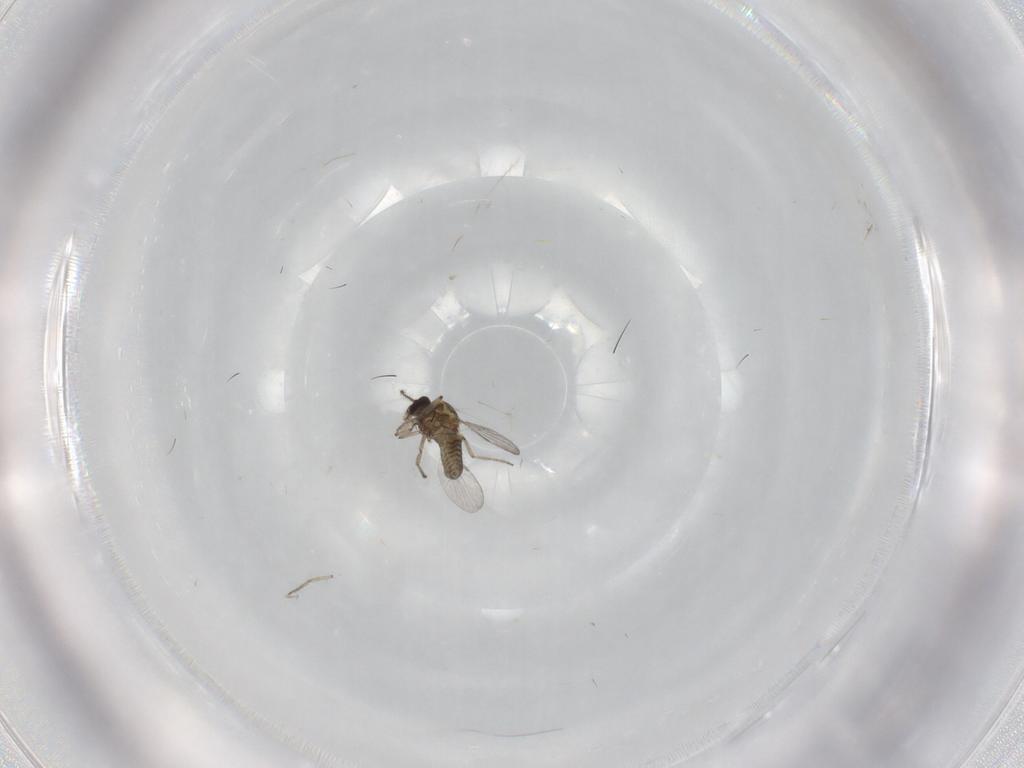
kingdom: Animalia
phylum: Arthropoda
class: Insecta
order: Diptera
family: Ceratopogonidae
